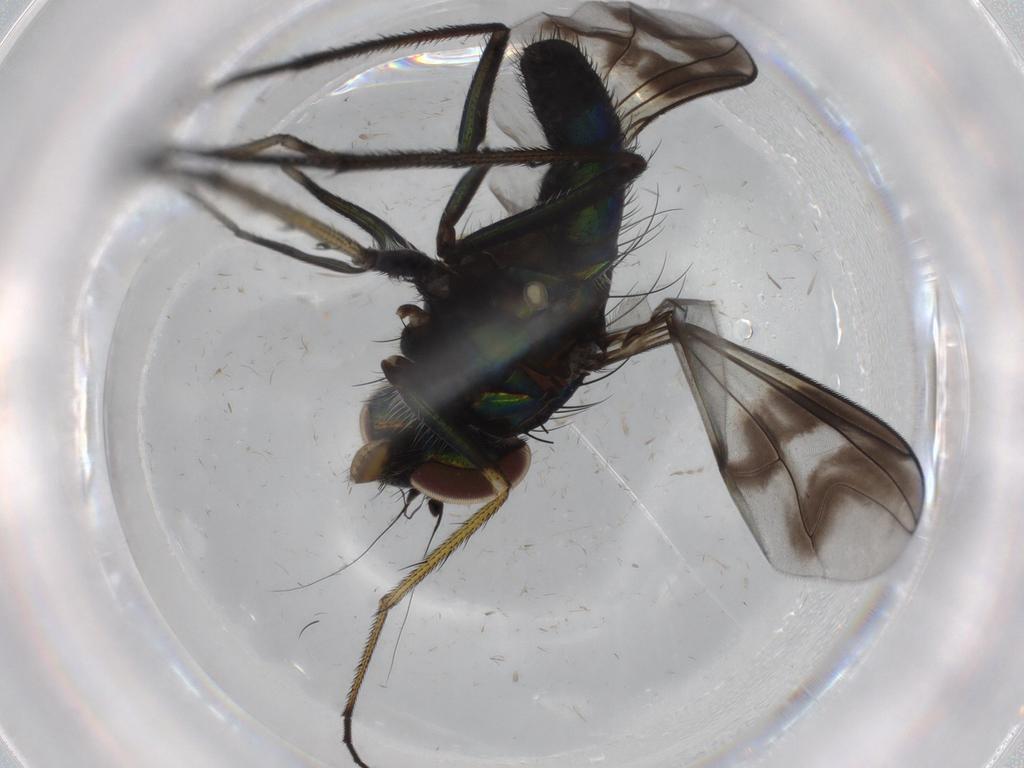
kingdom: Animalia
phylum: Arthropoda
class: Insecta
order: Diptera
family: Dolichopodidae
